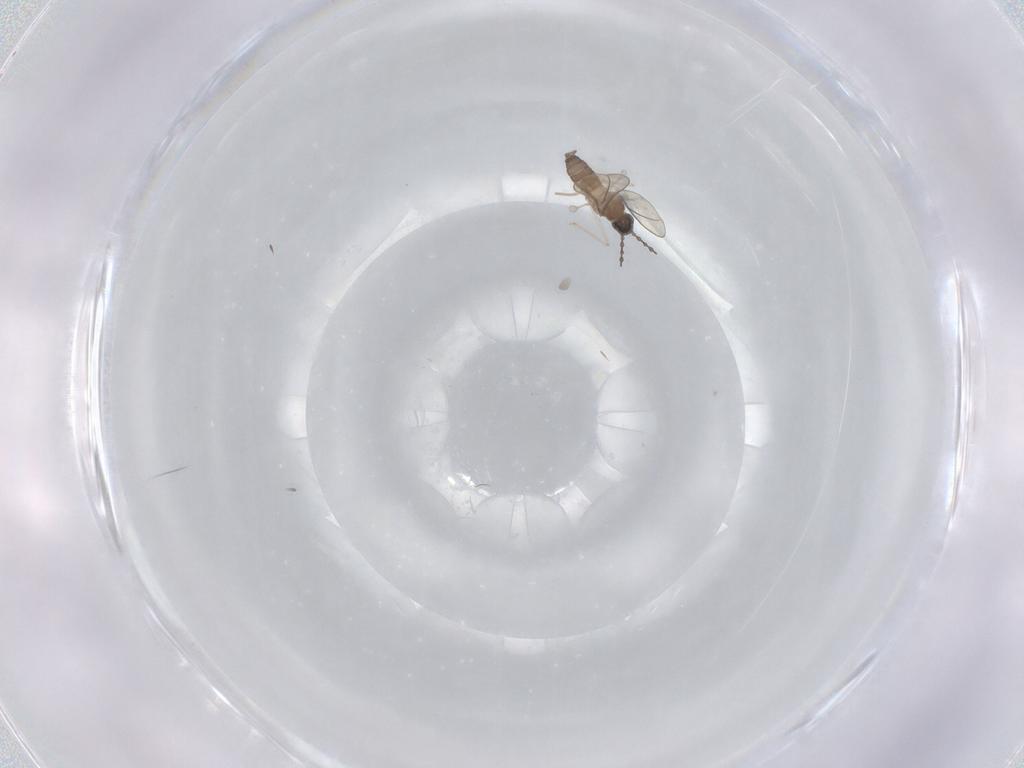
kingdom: Animalia
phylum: Arthropoda
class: Insecta
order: Diptera
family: Cecidomyiidae
